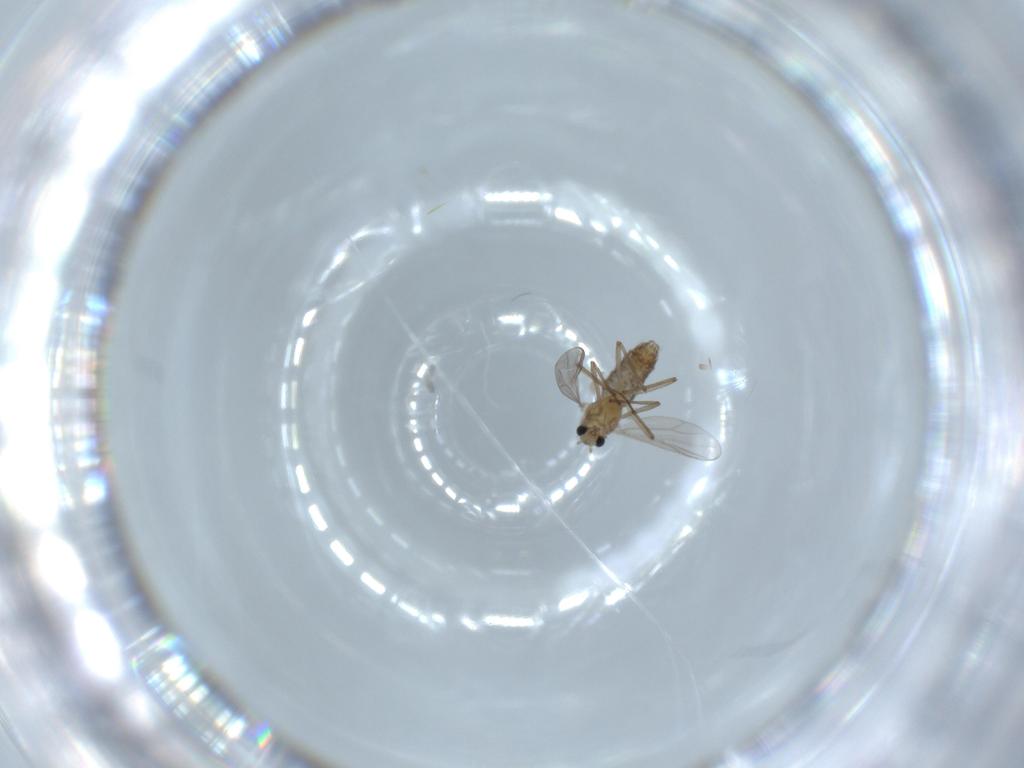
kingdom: Animalia
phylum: Arthropoda
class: Insecta
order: Diptera
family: Chironomidae
